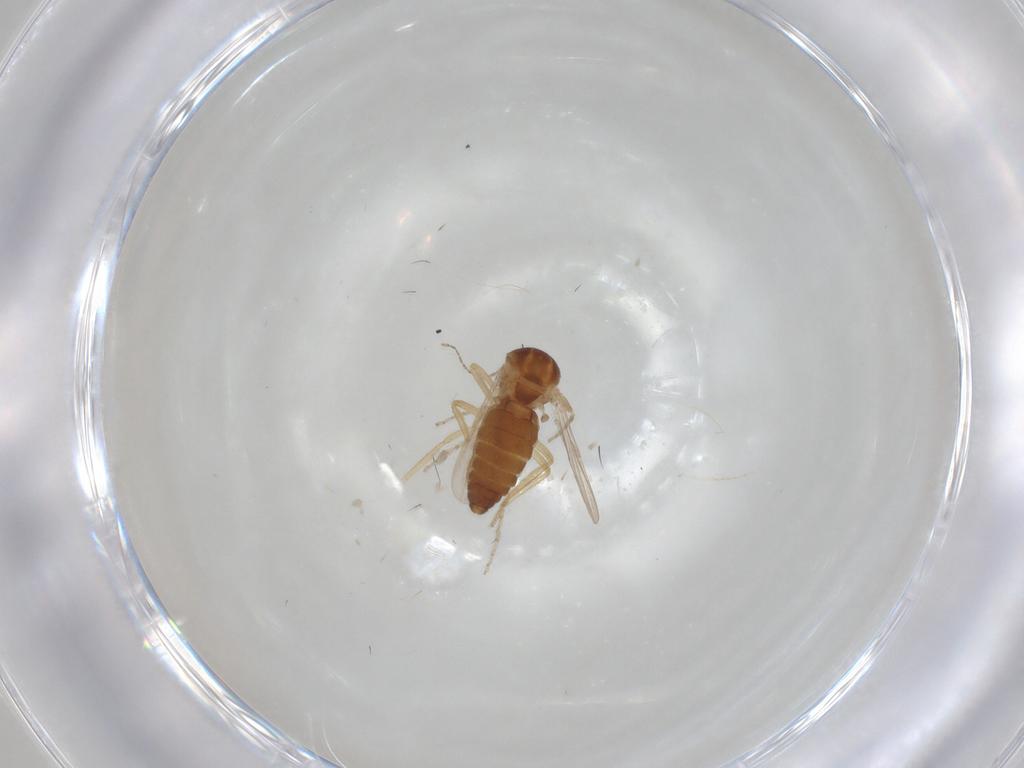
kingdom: Animalia
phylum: Arthropoda
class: Insecta
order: Diptera
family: Ceratopogonidae
